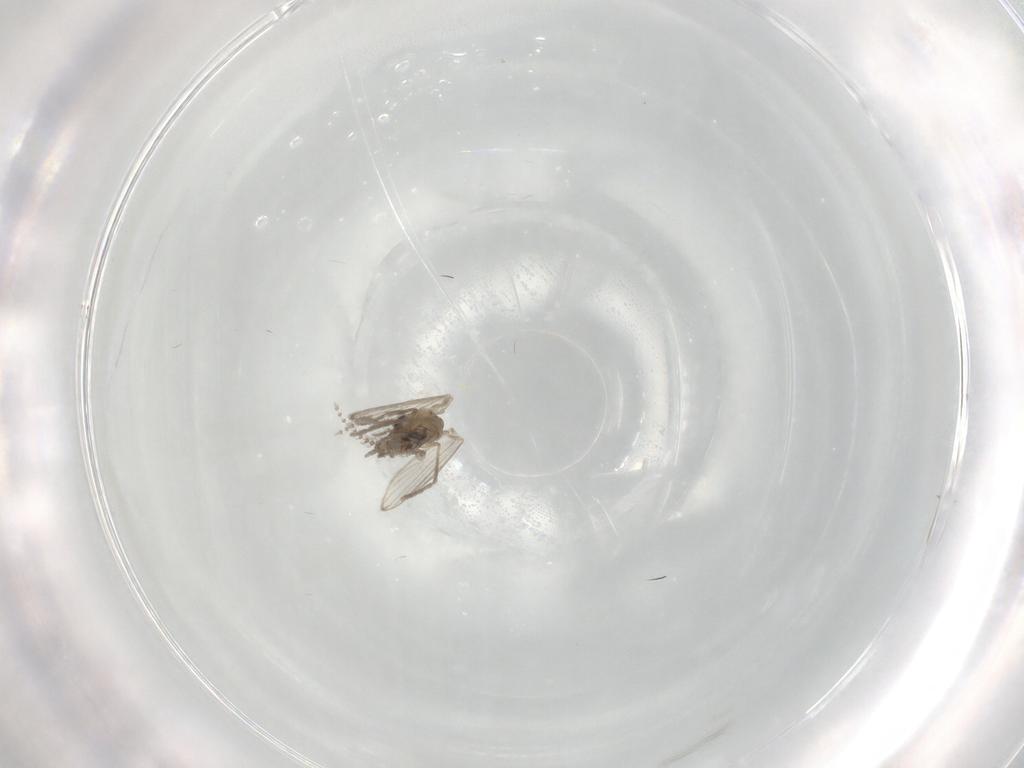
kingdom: Animalia
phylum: Arthropoda
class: Insecta
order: Diptera
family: Psychodidae
